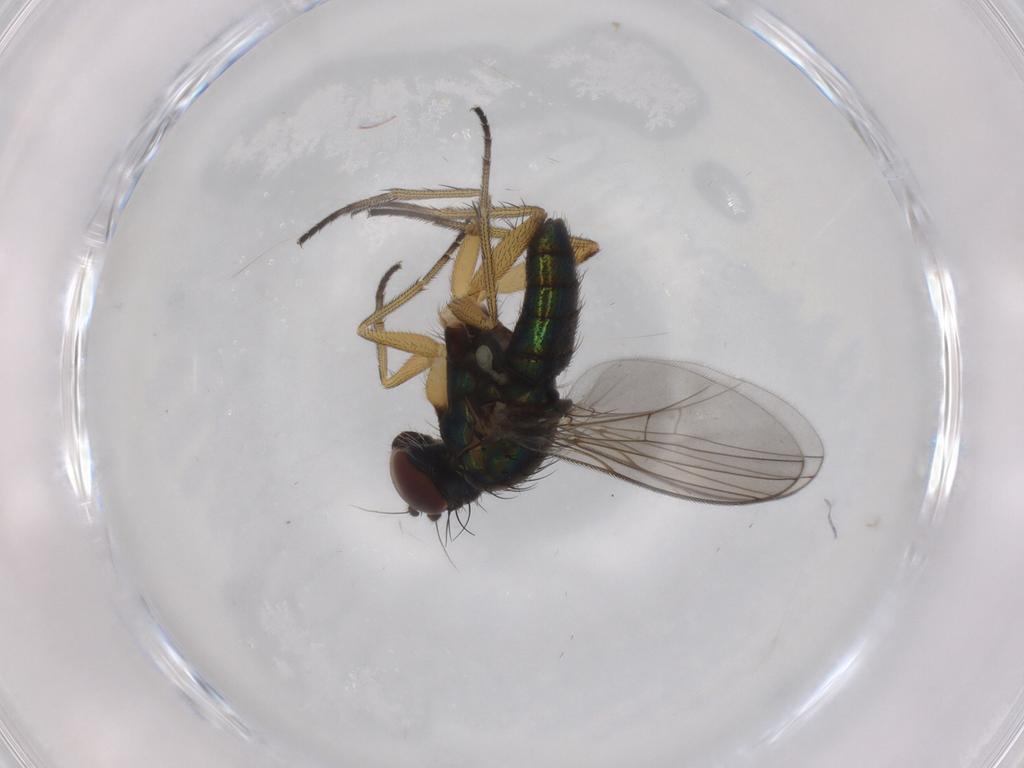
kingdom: Animalia
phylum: Arthropoda
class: Insecta
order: Diptera
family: Dolichopodidae
